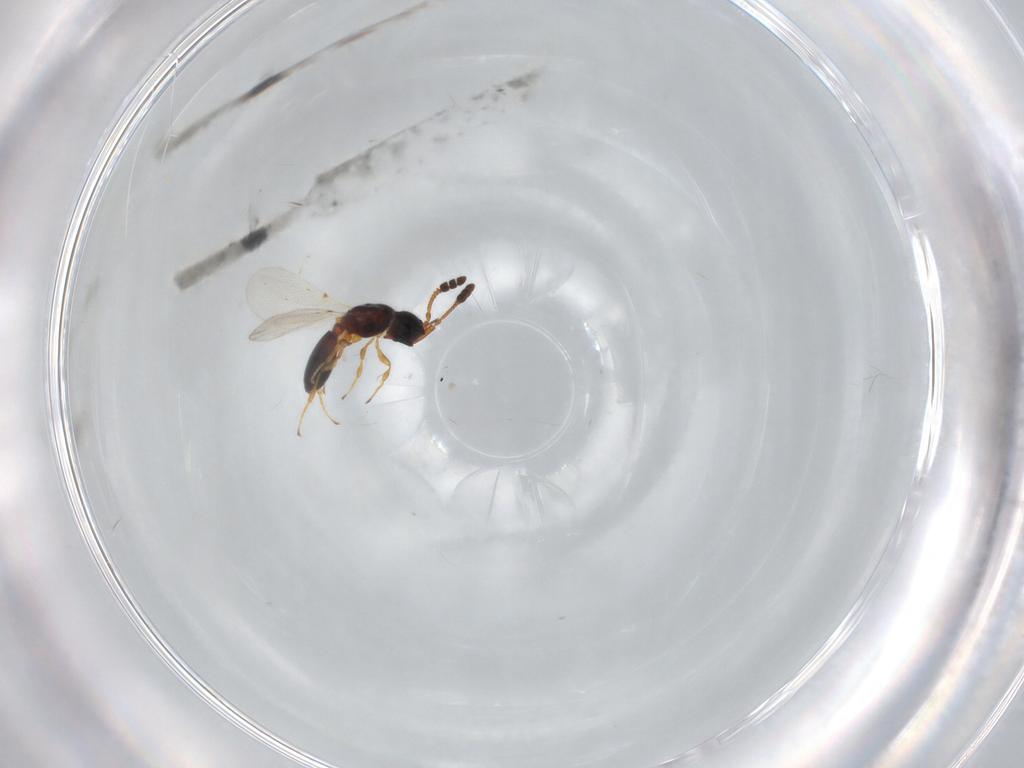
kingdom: Animalia
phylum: Arthropoda
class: Insecta
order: Hymenoptera
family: Diapriidae
